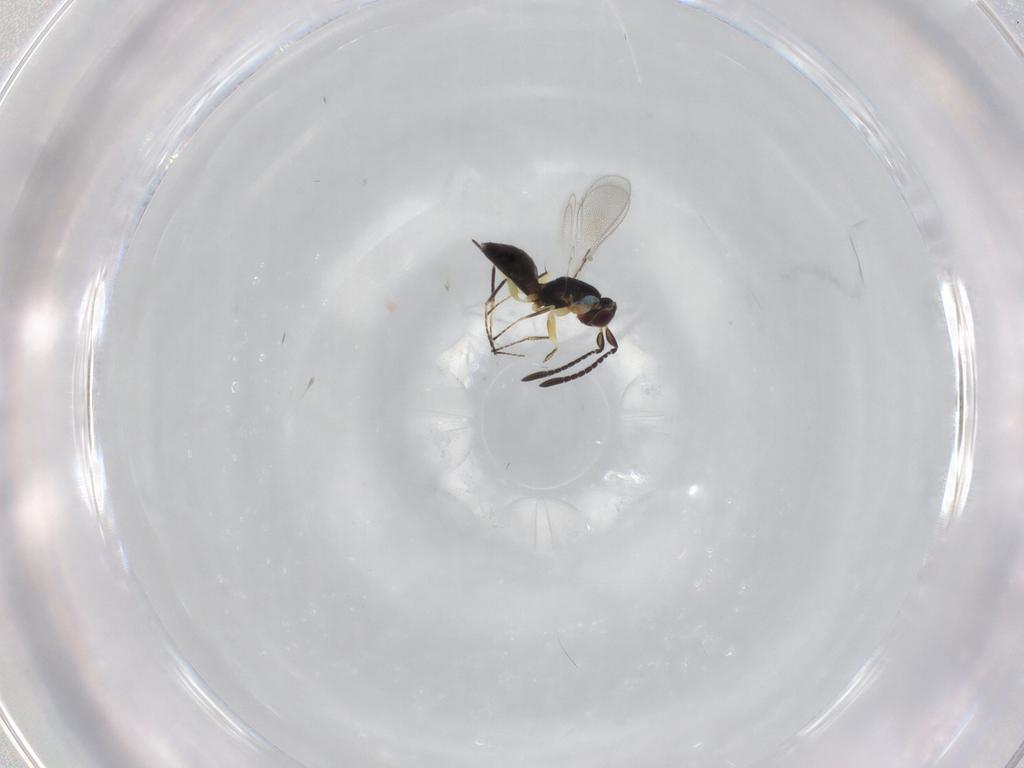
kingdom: Animalia
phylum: Arthropoda
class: Insecta
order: Hymenoptera
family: Mymaridae
